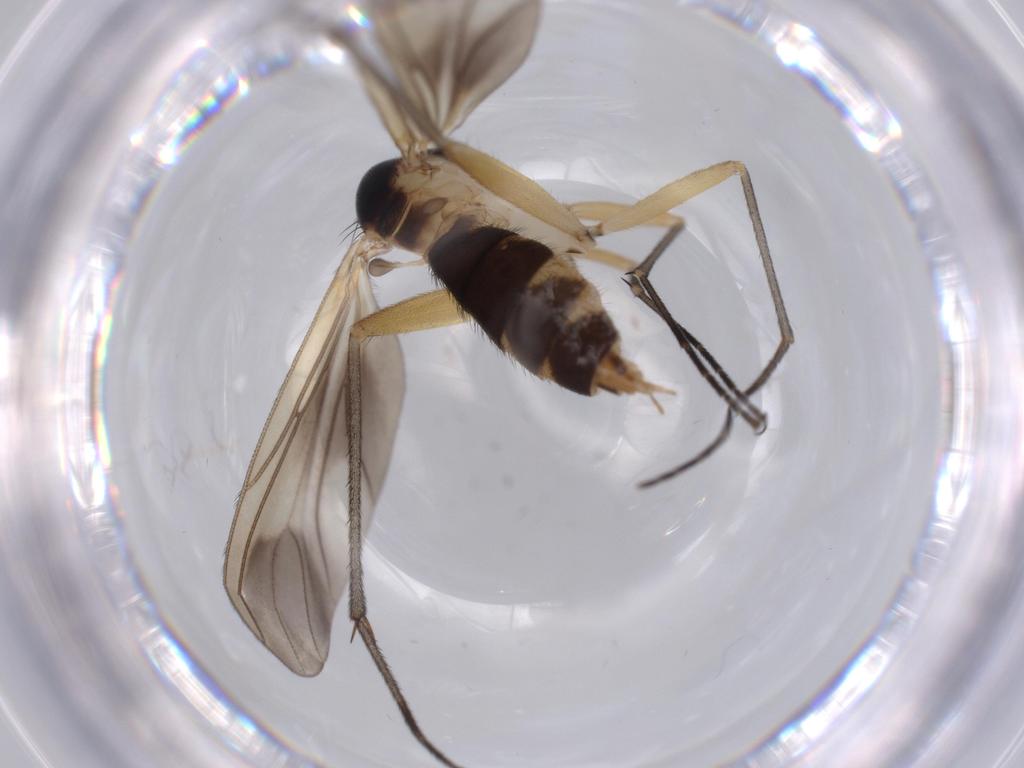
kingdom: Animalia
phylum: Arthropoda
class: Insecta
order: Diptera
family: Sciaridae
